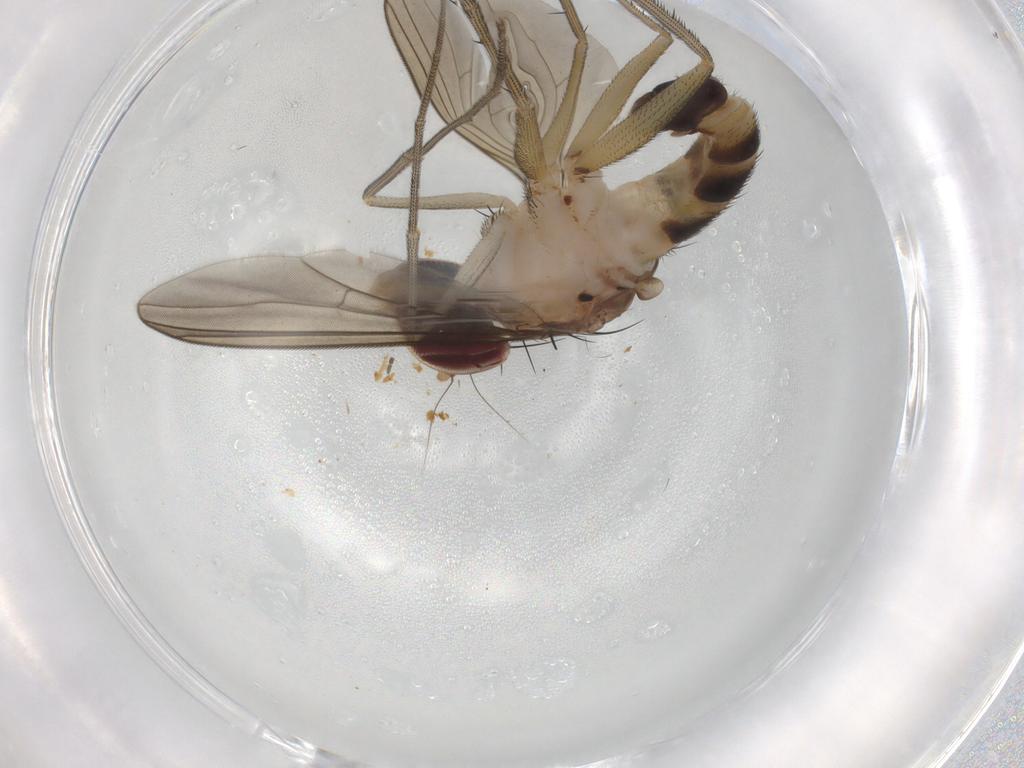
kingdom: Animalia
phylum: Arthropoda
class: Insecta
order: Diptera
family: Dolichopodidae
